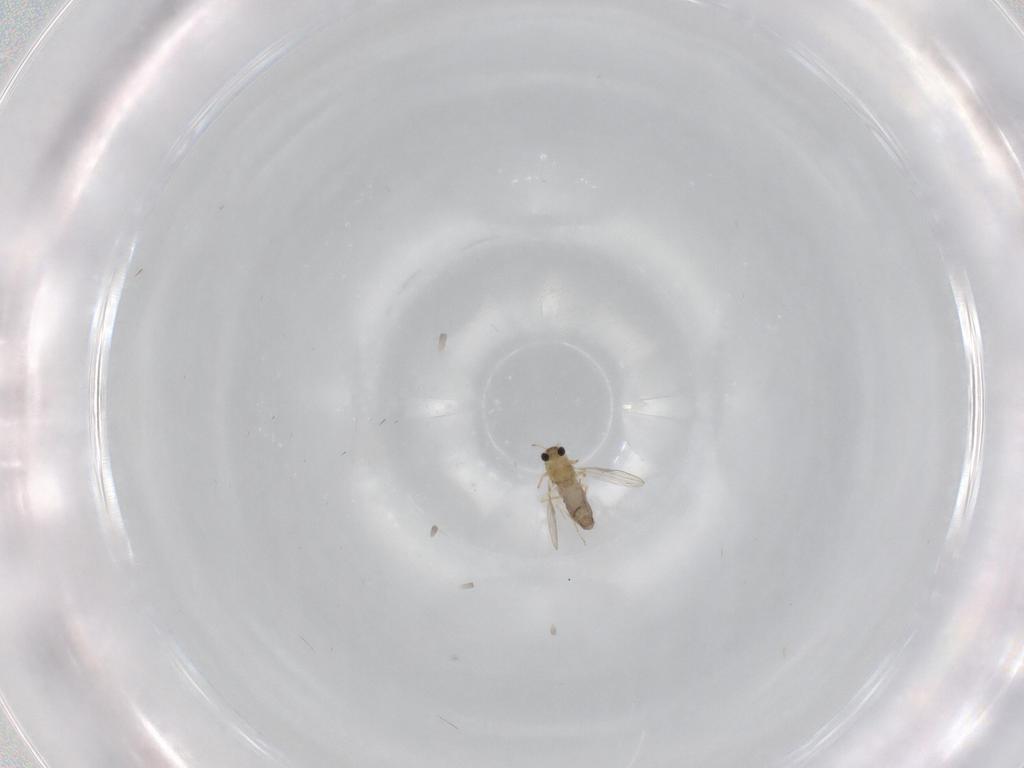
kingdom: Animalia
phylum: Arthropoda
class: Insecta
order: Diptera
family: Chironomidae
